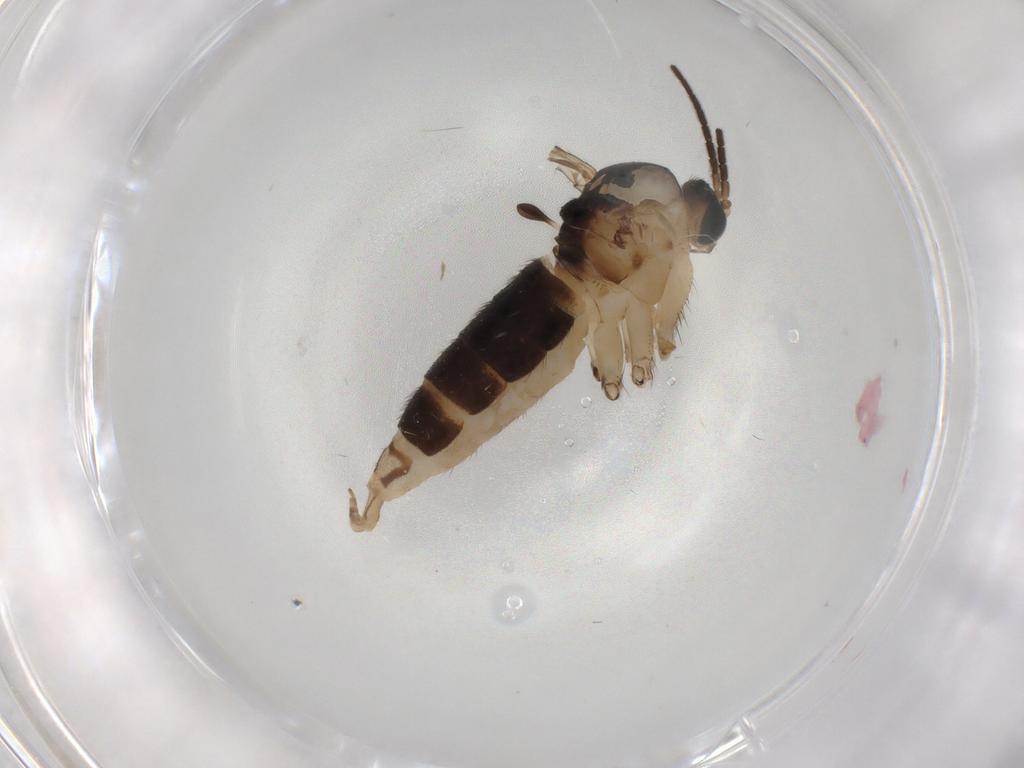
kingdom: Animalia
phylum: Arthropoda
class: Insecta
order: Diptera
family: Sciaridae
